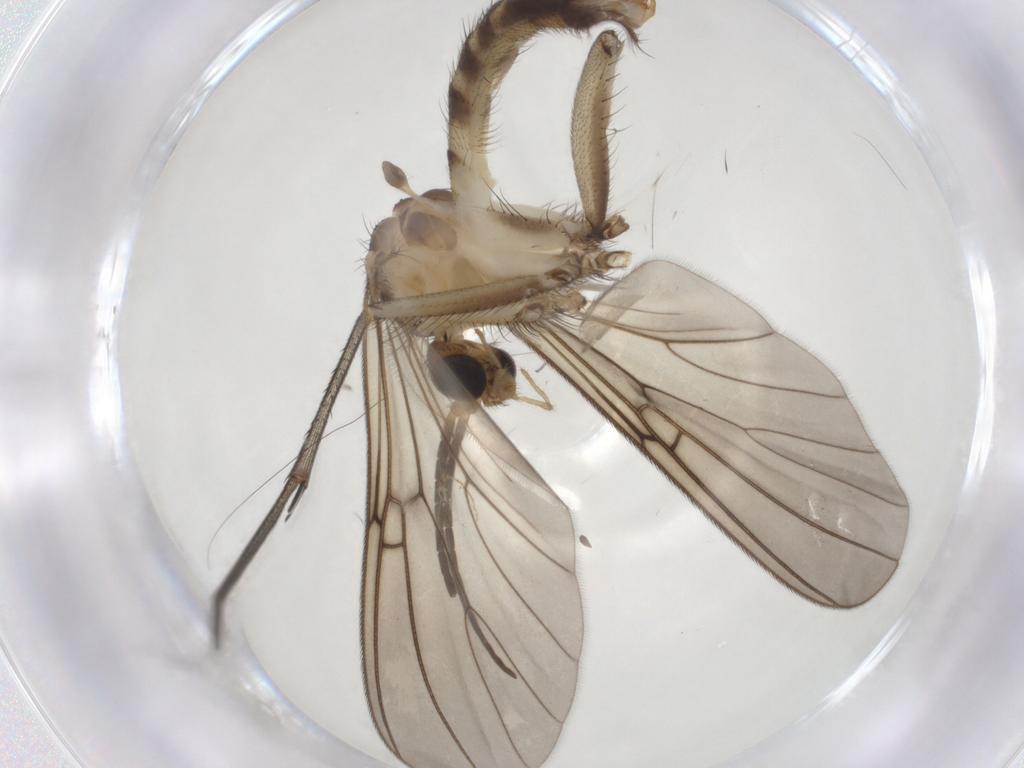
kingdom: Animalia
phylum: Arthropoda
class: Insecta
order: Diptera
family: Mycetophilidae
